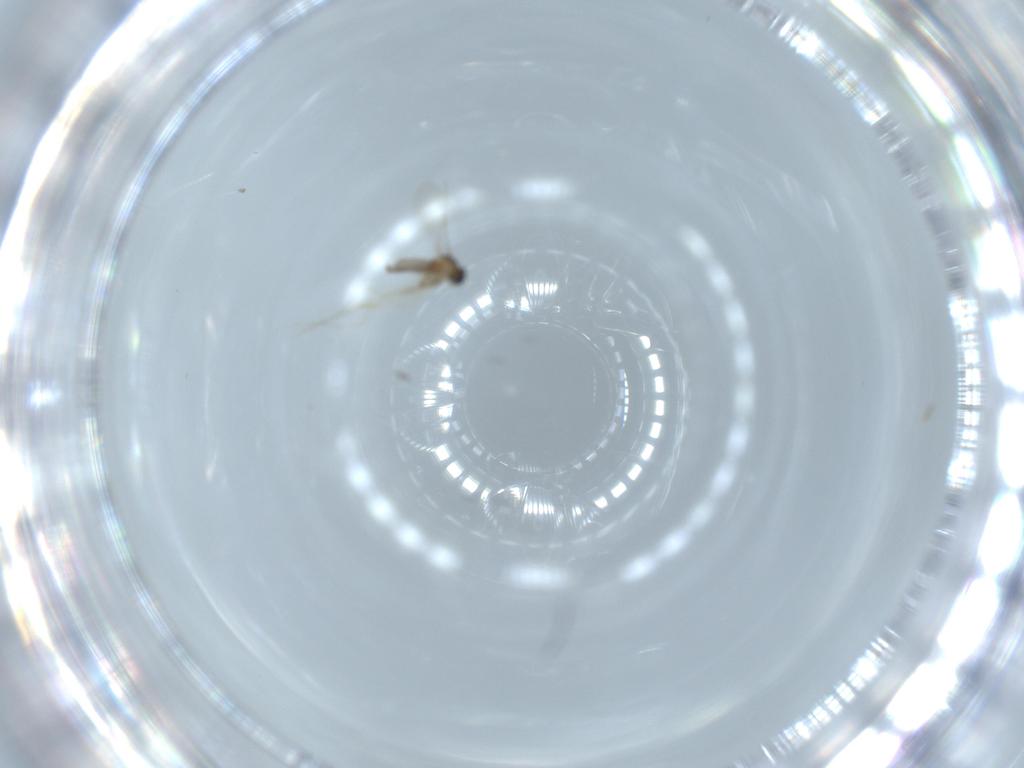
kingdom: Animalia
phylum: Arthropoda
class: Insecta
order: Diptera
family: Cecidomyiidae
